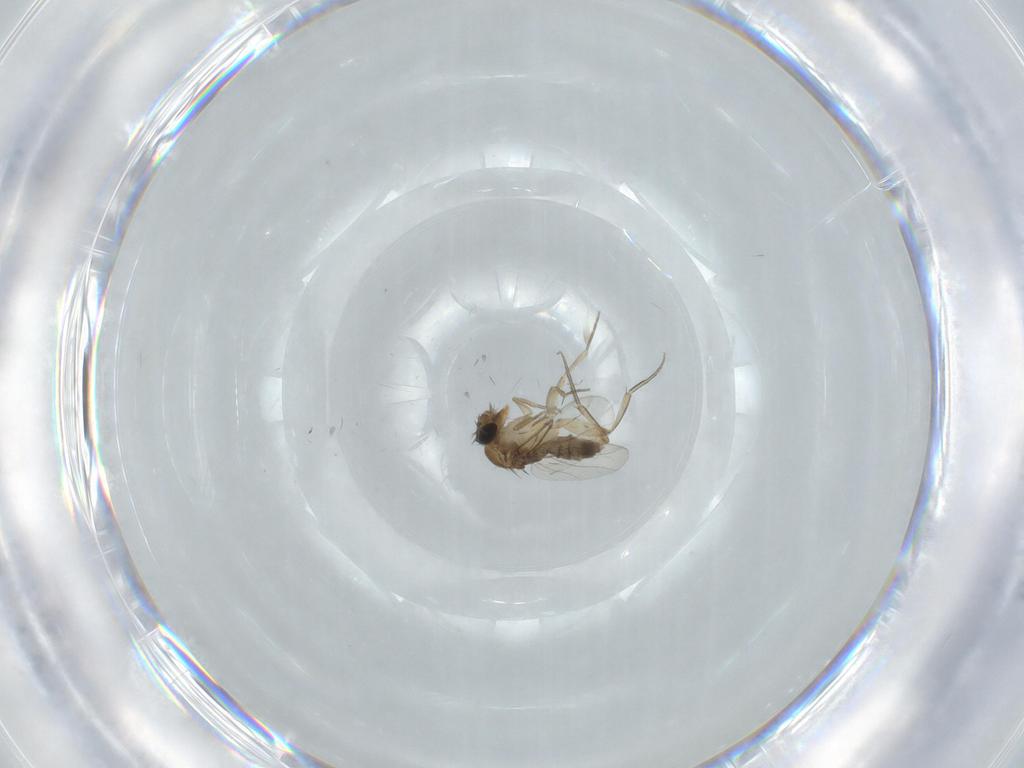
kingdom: Animalia
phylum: Arthropoda
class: Insecta
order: Diptera
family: Phoridae
